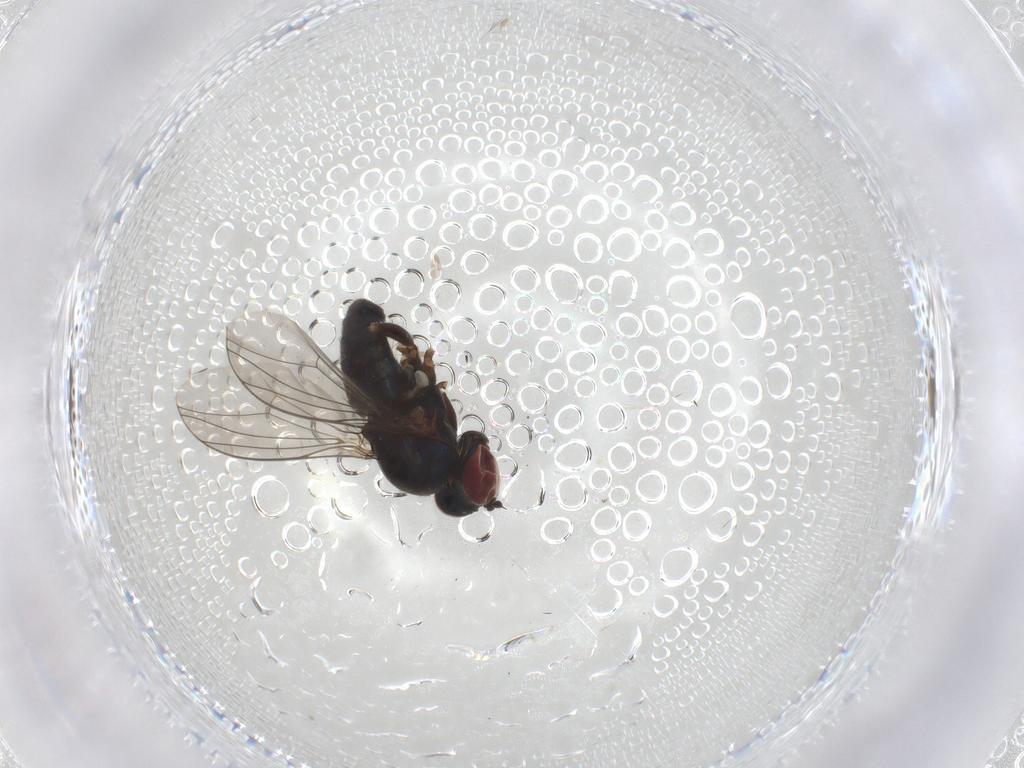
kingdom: Animalia
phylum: Arthropoda
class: Insecta
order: Diptera
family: Dolichopodidae
